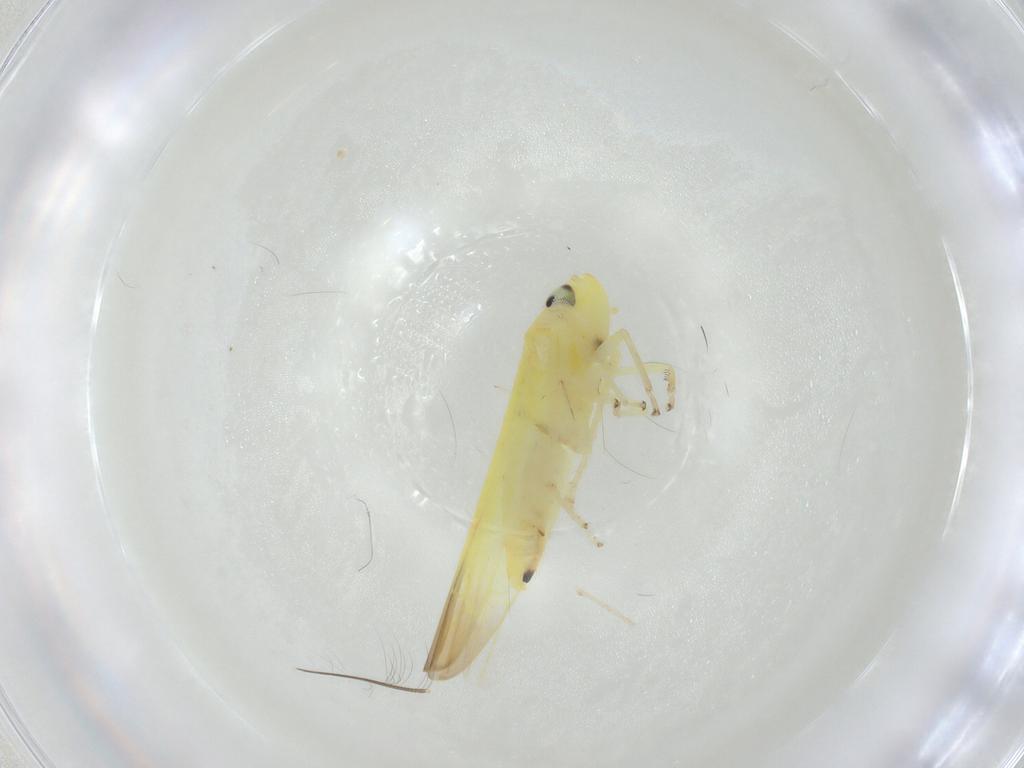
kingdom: Animalia
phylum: Arthropoda
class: Insecta
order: Hemiptera
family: Cicadellidae
